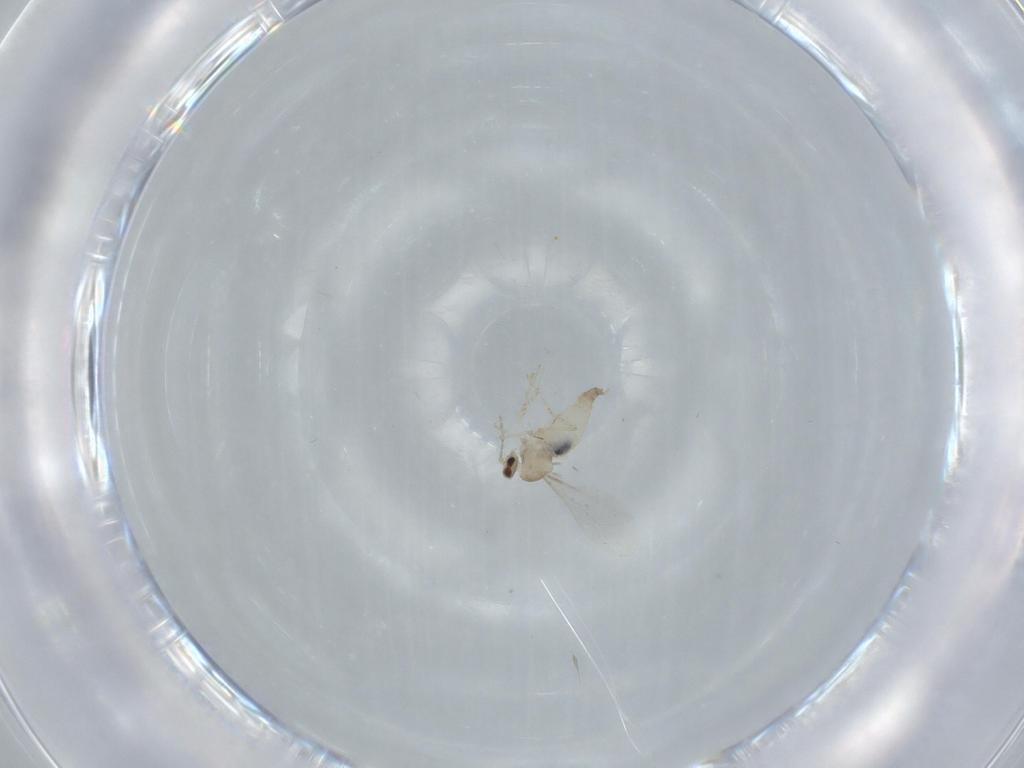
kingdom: Animalia
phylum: Arthropoda
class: Insecta
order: Diptera
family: Cecidomyiidae
